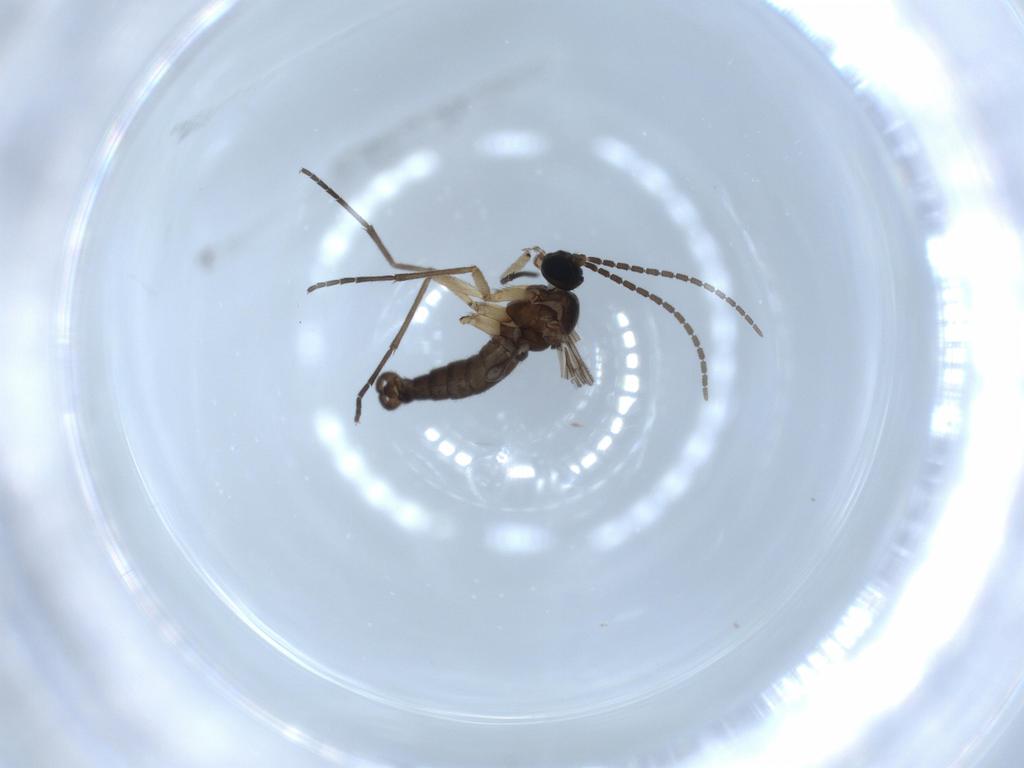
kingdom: Animalia
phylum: Arthropoda
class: Insecta
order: Diptera
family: Sciaridae
